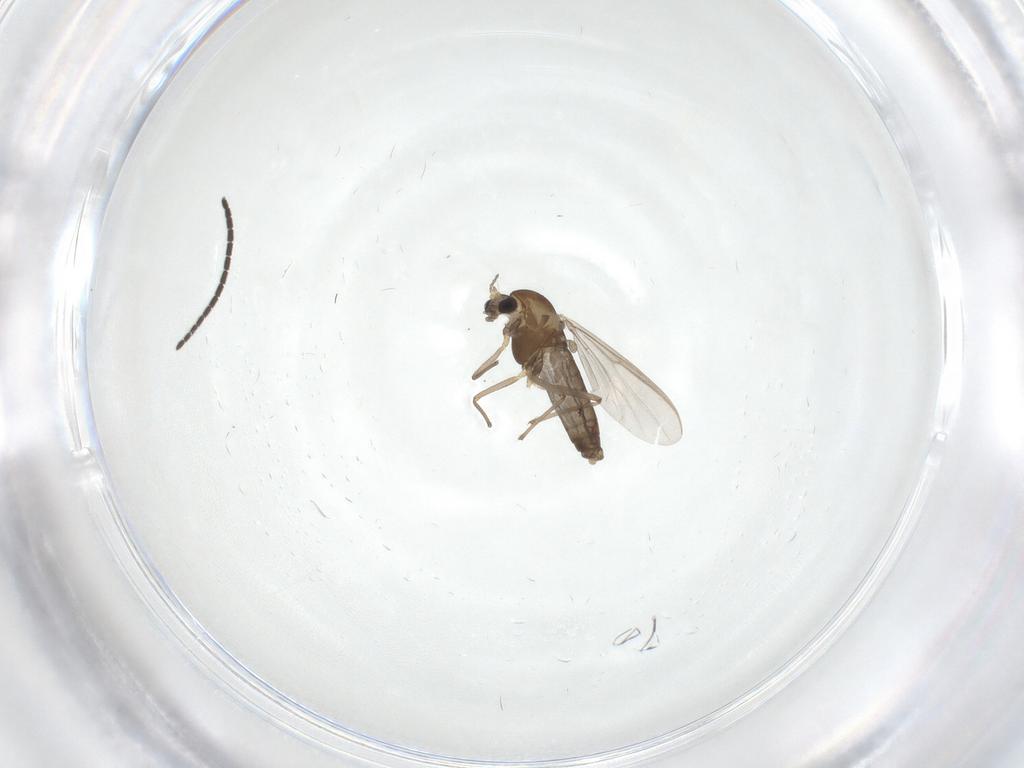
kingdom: Animalia
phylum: Arthropoda
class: Insecta
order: Diptera
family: Chironomidae
